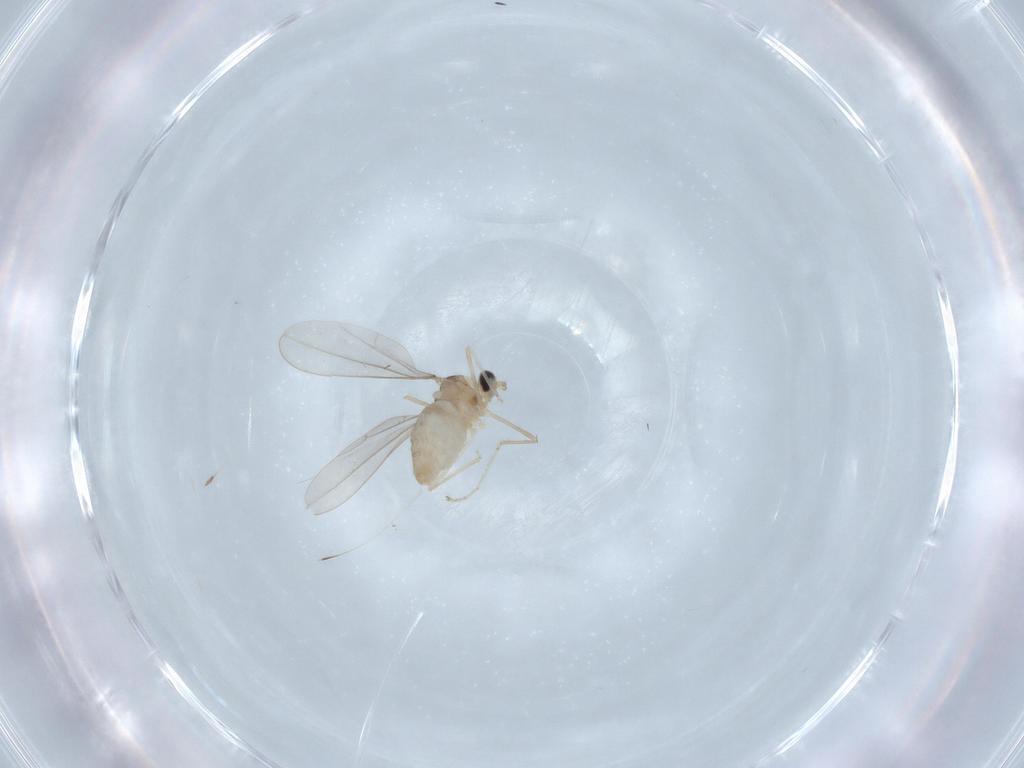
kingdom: Animalia
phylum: Arthropoda
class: Insecta
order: Diptera
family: Cecidomyiidae
